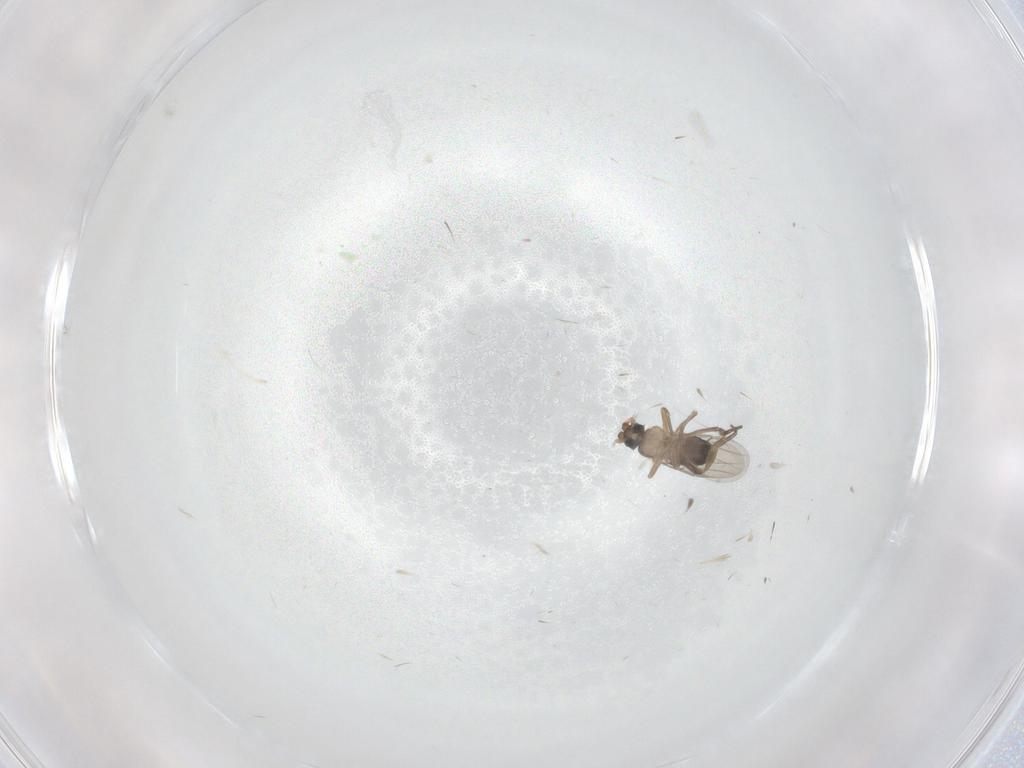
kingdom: Animalia
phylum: Arthropoda
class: Insecta
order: Diptera
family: Phoridae
